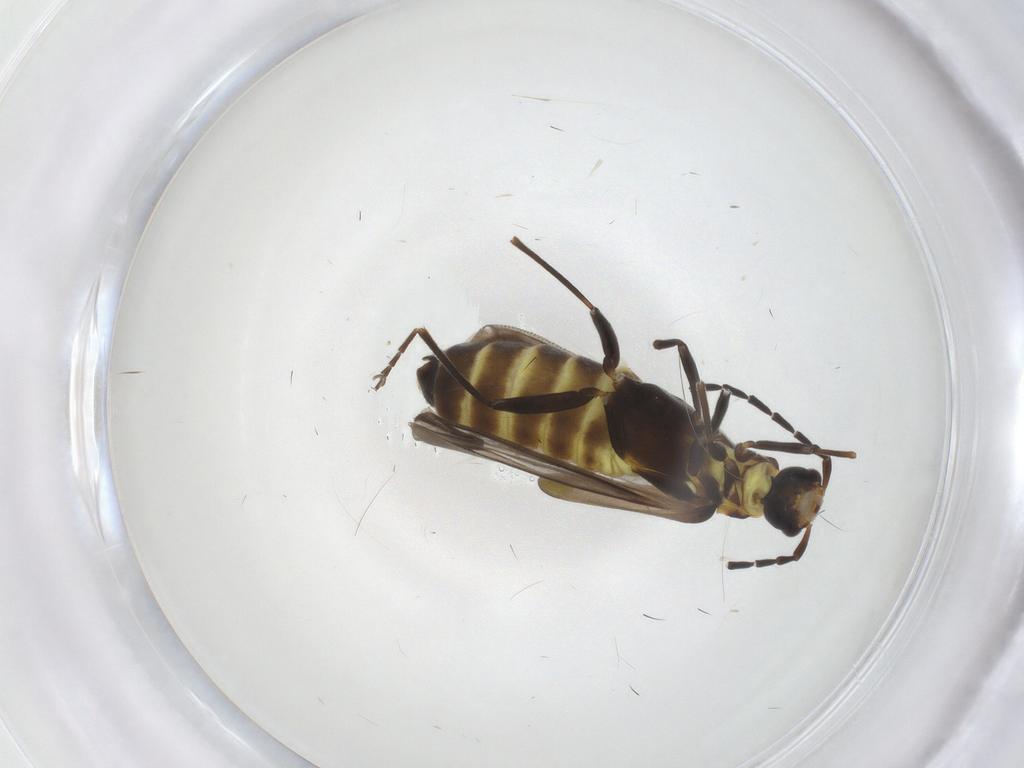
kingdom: Animalia
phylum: Arthropoda
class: Insecta
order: Coleoptera
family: Cantharidae
